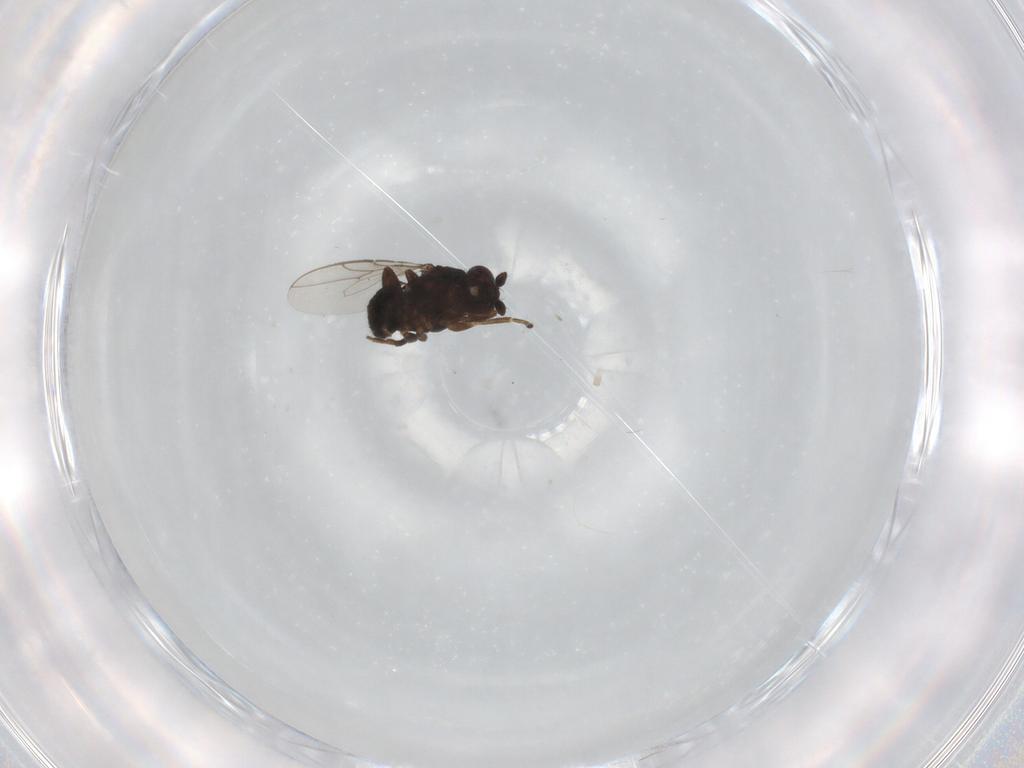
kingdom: Animalia
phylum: Arthropoda
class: Insecta
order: Diptera
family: Sphaeroceridae
